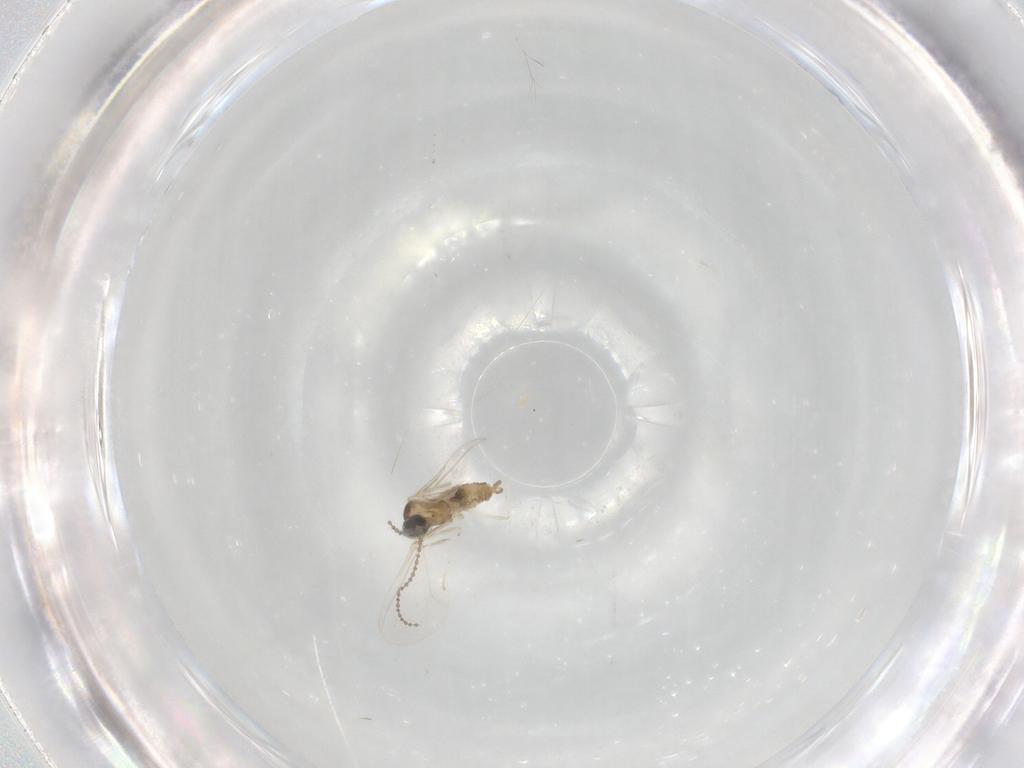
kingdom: Animalia
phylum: Arthropoda
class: Insecta
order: Diptera
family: Cecidomyiidae
